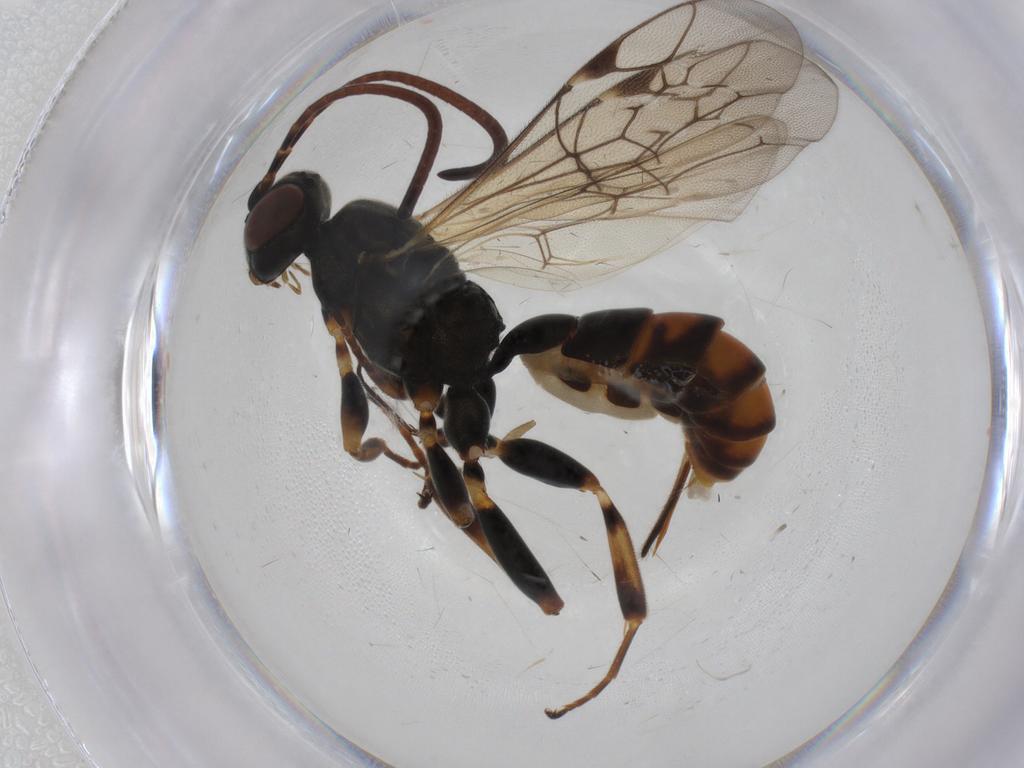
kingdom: Animalia
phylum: Arthropoda
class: Insecta
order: Hymenoptera
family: Ichneumonidae
